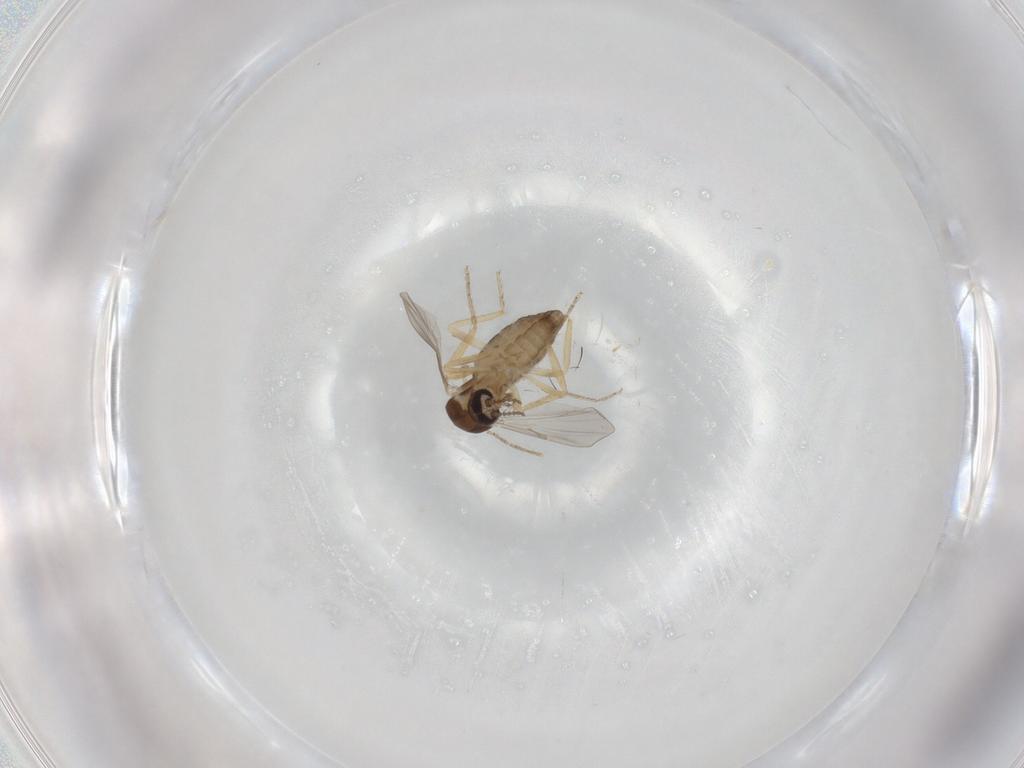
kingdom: Animalia
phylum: Arthropoda
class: Insecta
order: Diptera
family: Ceratopogonidae
